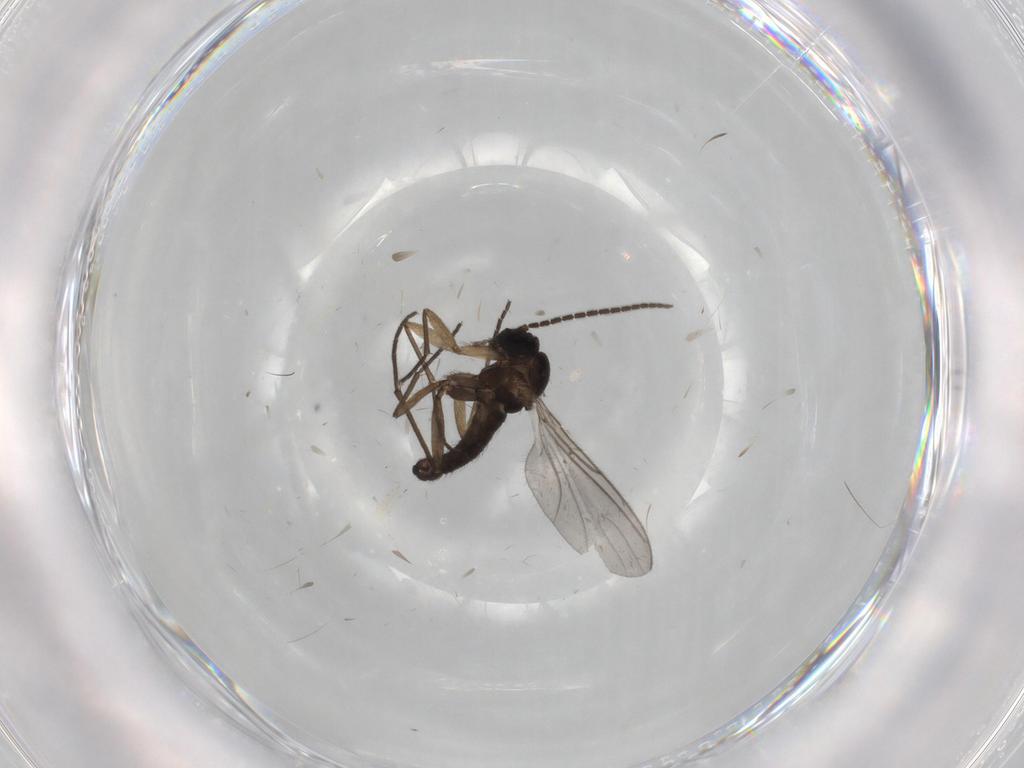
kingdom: Animalia
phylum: Arthropoda
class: Insecta
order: Diptera
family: Sciaridae
